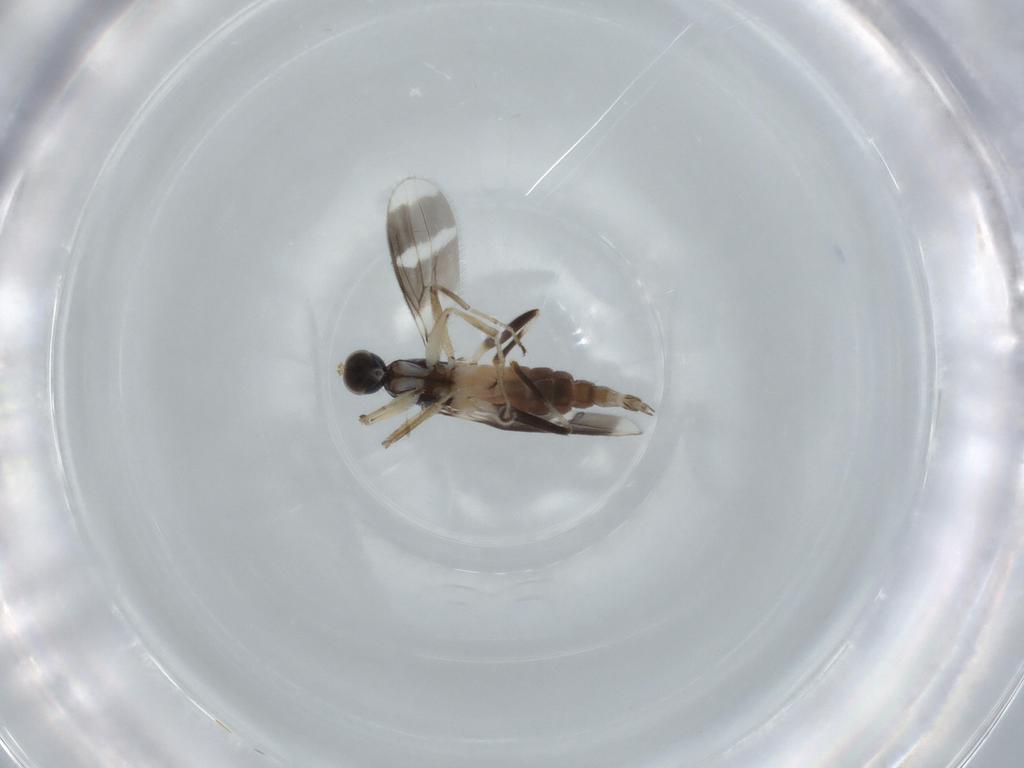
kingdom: Animalia
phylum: Arthropoda
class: Insecta
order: Diptera
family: Hybotidae
